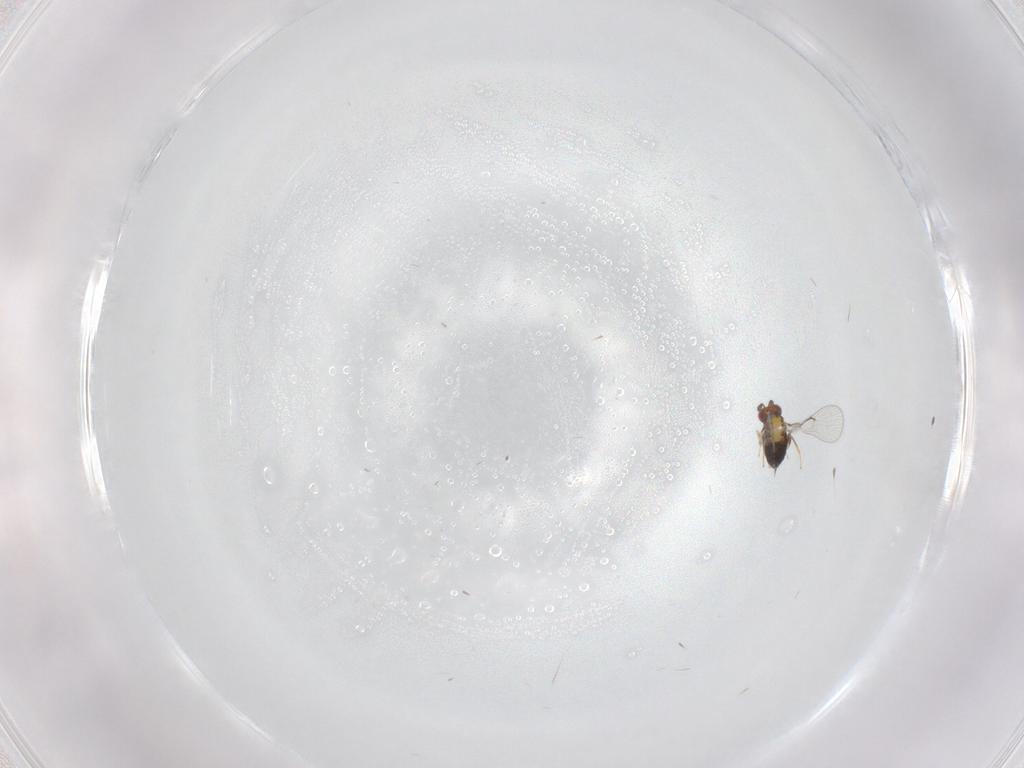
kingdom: Animalia
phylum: Arthropoda
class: Insecta
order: Hymenoptera
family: Trichogrammatidae
